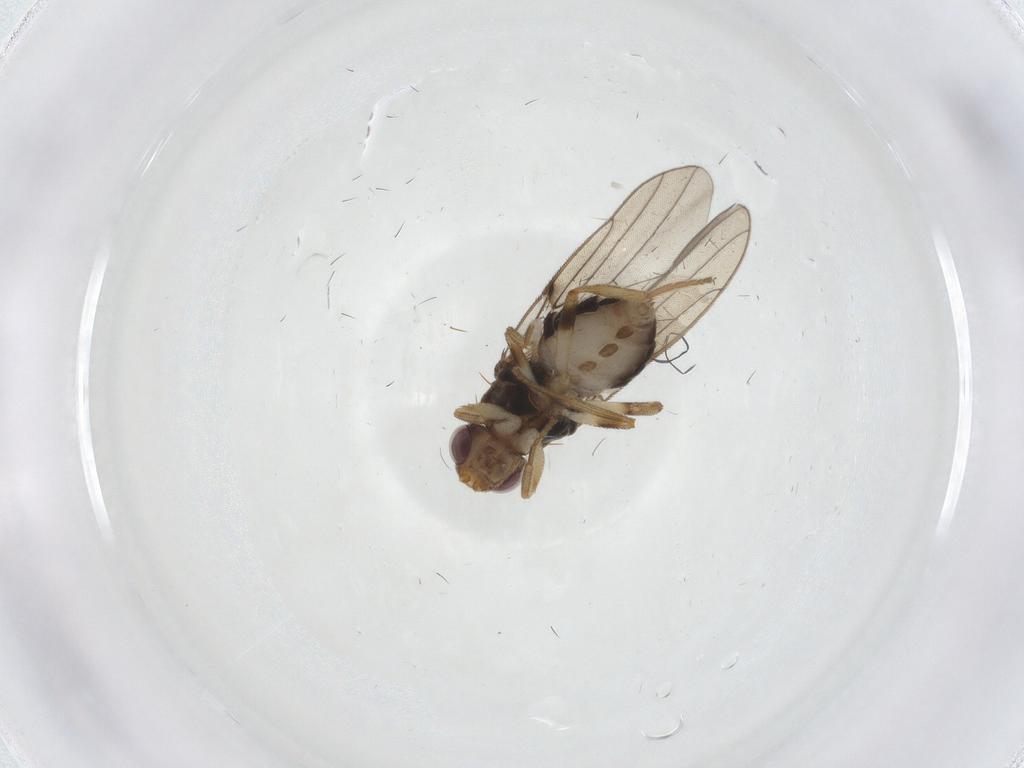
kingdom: Animalia
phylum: Arthropoda
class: Insecta
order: Diptera
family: Chloropidae
